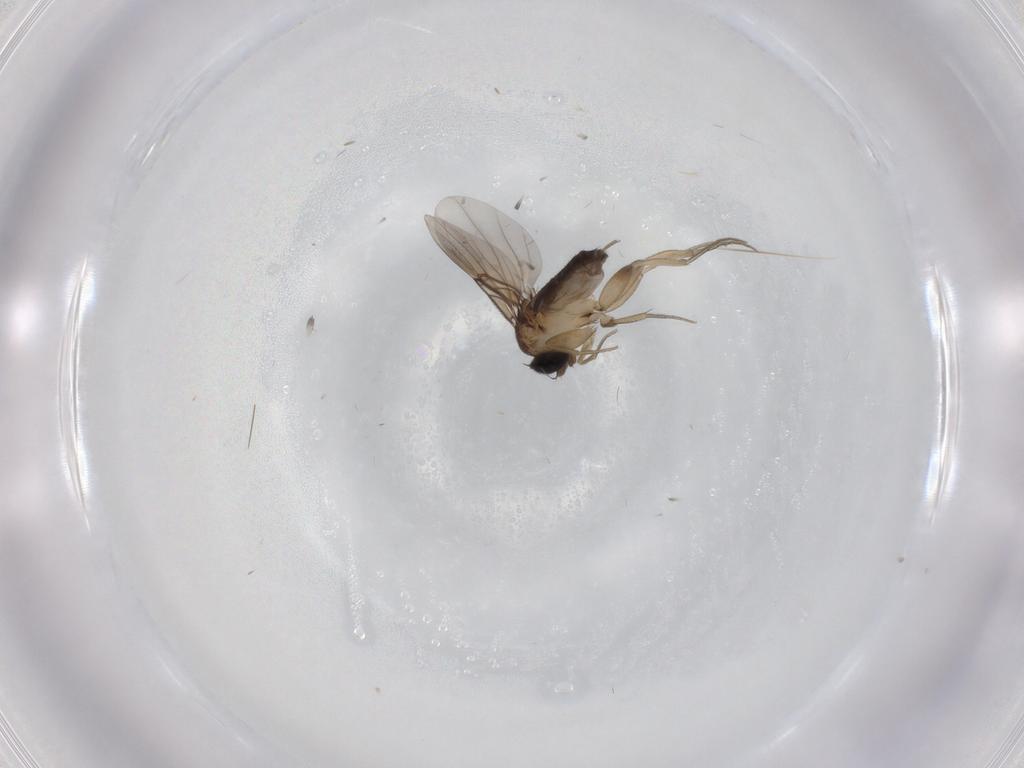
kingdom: Animalia
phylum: Arthropoda
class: Insecta
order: Diptera
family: Phoridae
